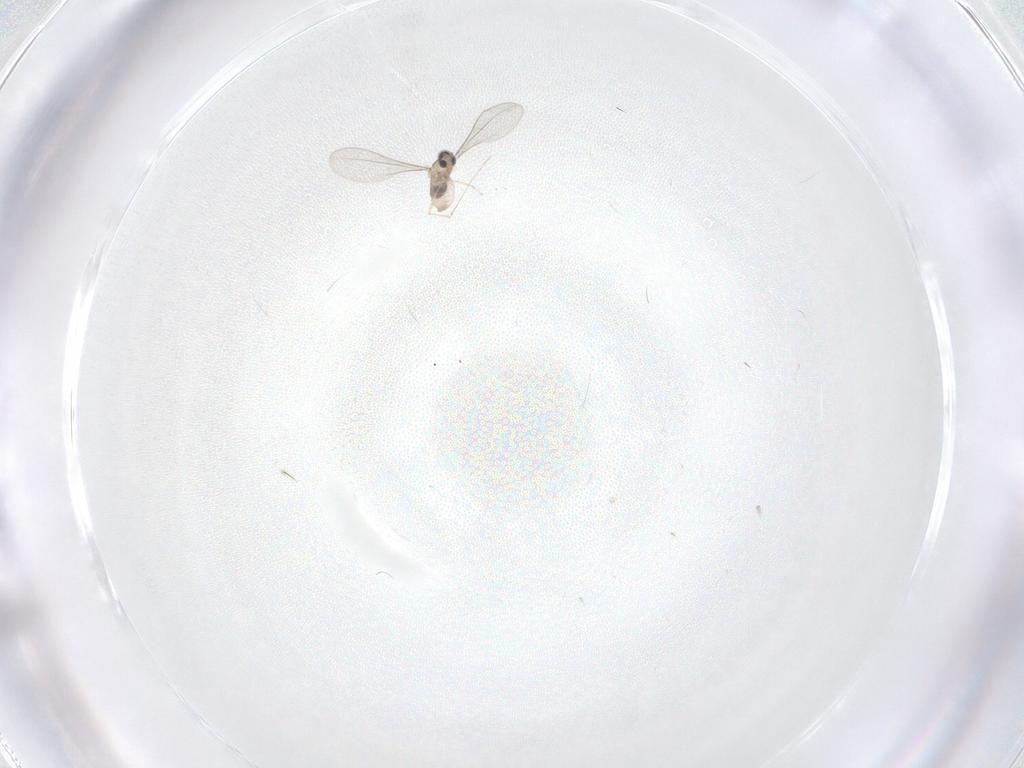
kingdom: Animalia
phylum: Arthropoda
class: Insecta
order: Diptera
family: Cecidomyiidae
